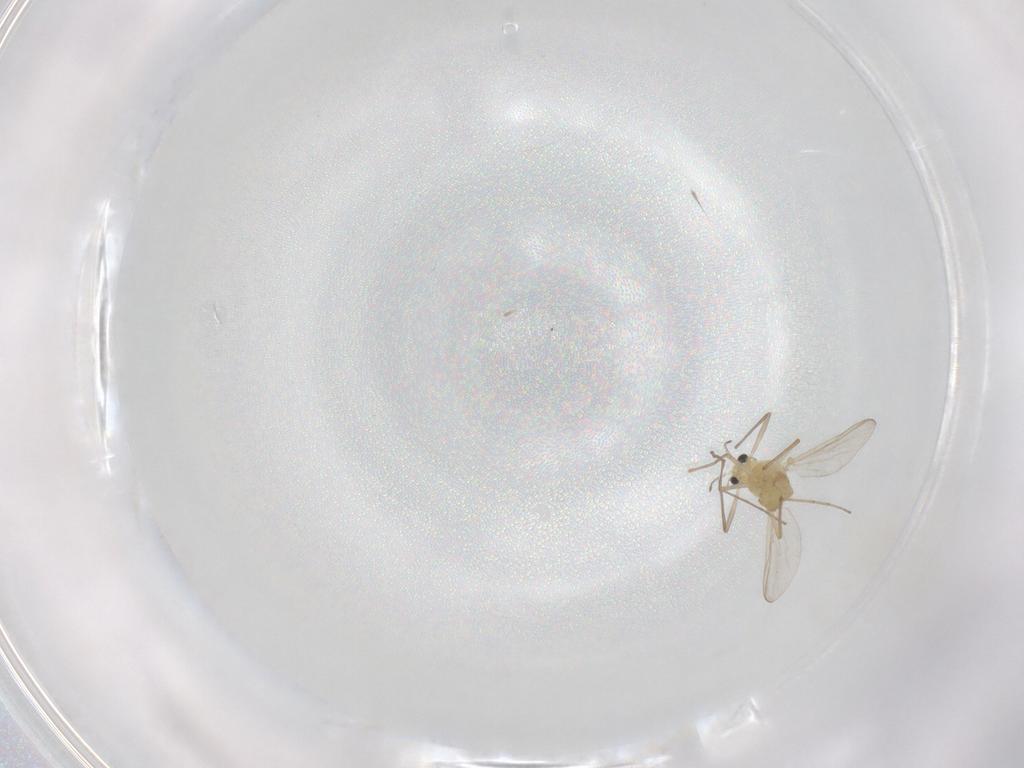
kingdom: Animalia
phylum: Arthropoda
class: Insecta
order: Diptera
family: Chironomidae
